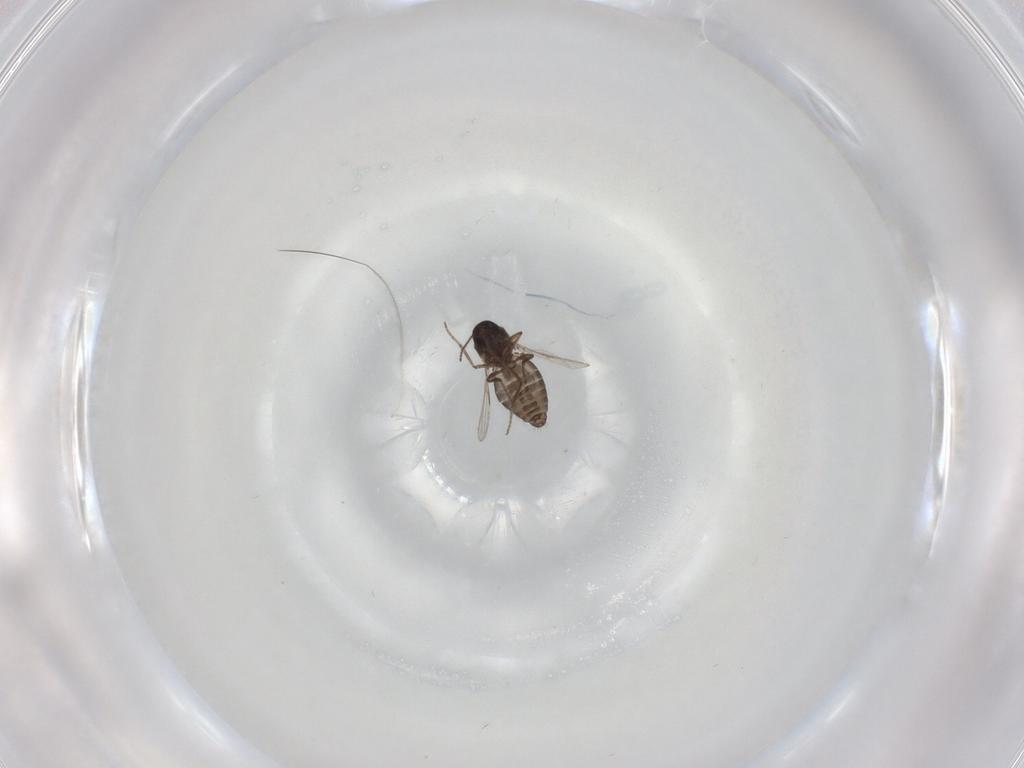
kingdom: Animalia
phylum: Arthropoda
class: Insecta
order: Diptera
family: Ceratopogonidae
